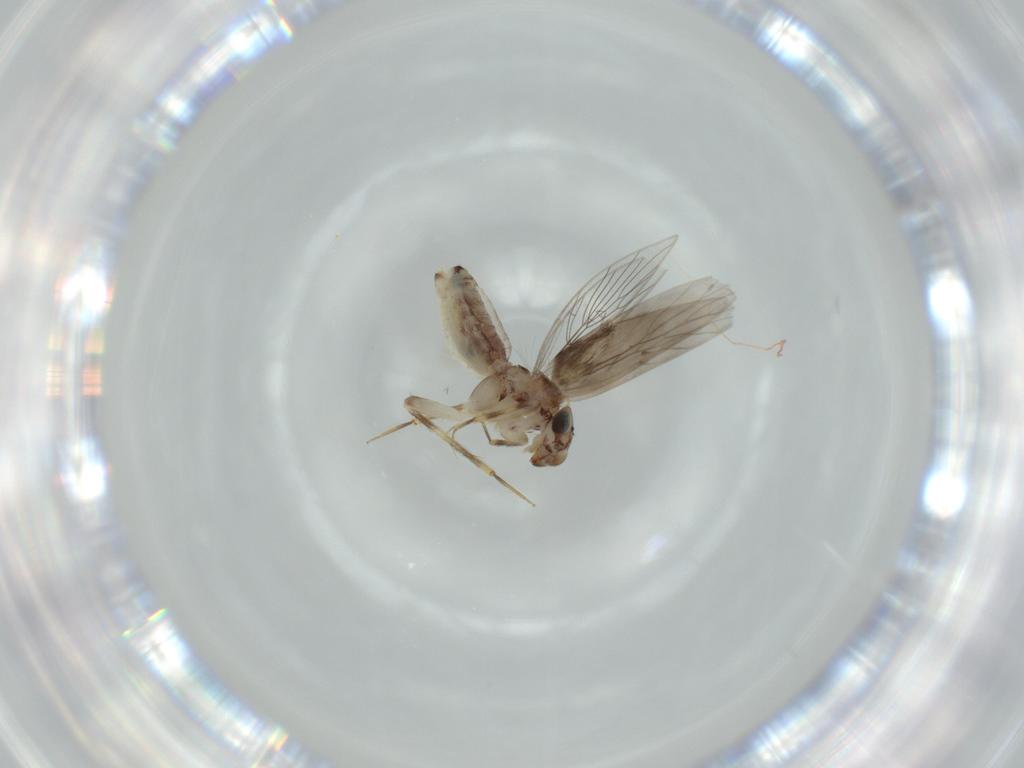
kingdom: Animalia
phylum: Arthropoda
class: Insecta
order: Psocodea
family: Lepidopsocidae
